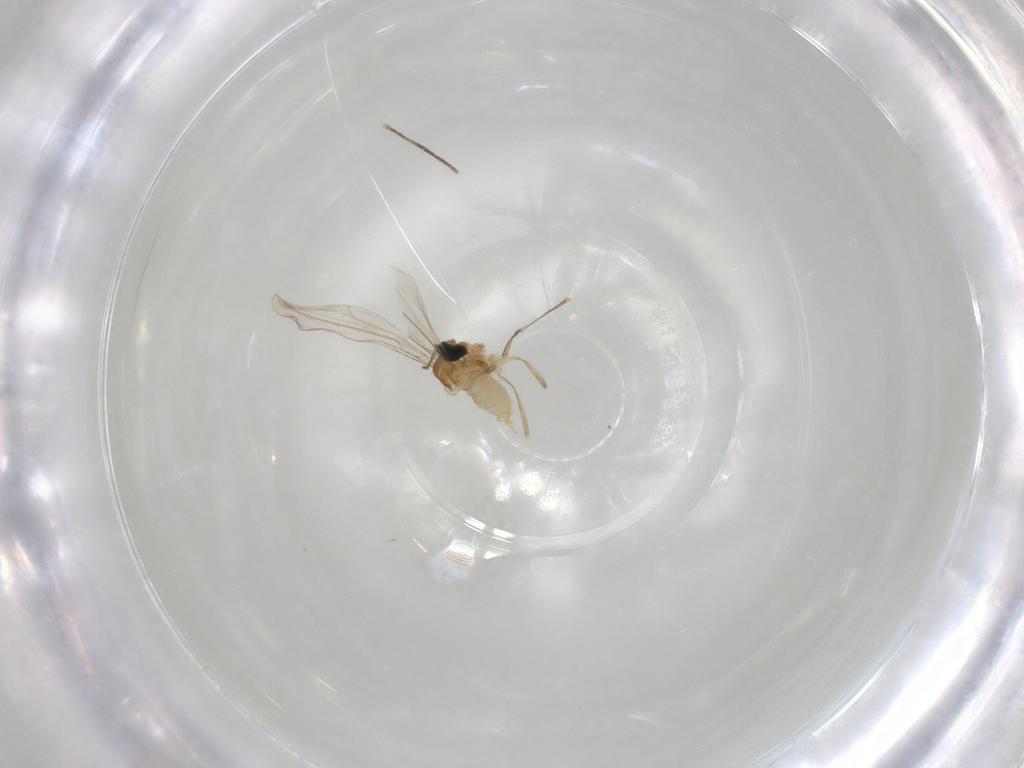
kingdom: Animalia
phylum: Arthropoda
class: Insecta
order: Diptera
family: Cecidomyiidae
